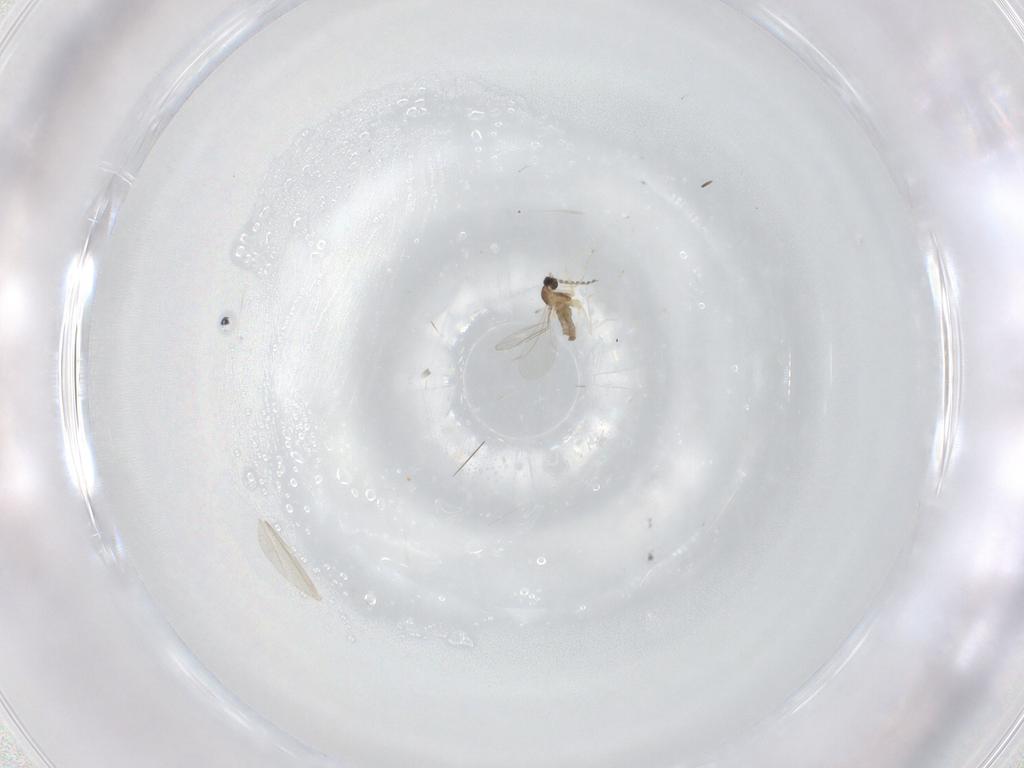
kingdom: Animalia
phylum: Arthropoda
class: Insecta
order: Diptera
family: Cecidomyiidae
